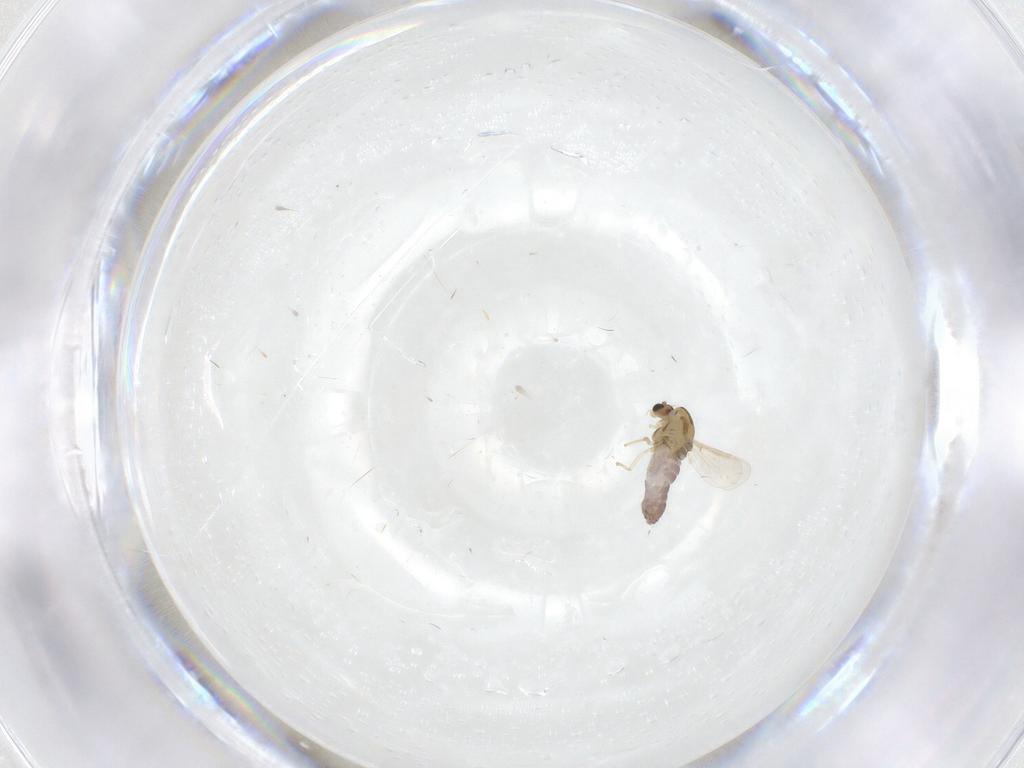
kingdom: Animalia
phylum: Arthropoda
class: Insecta
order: Diptera
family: Chironomidae
